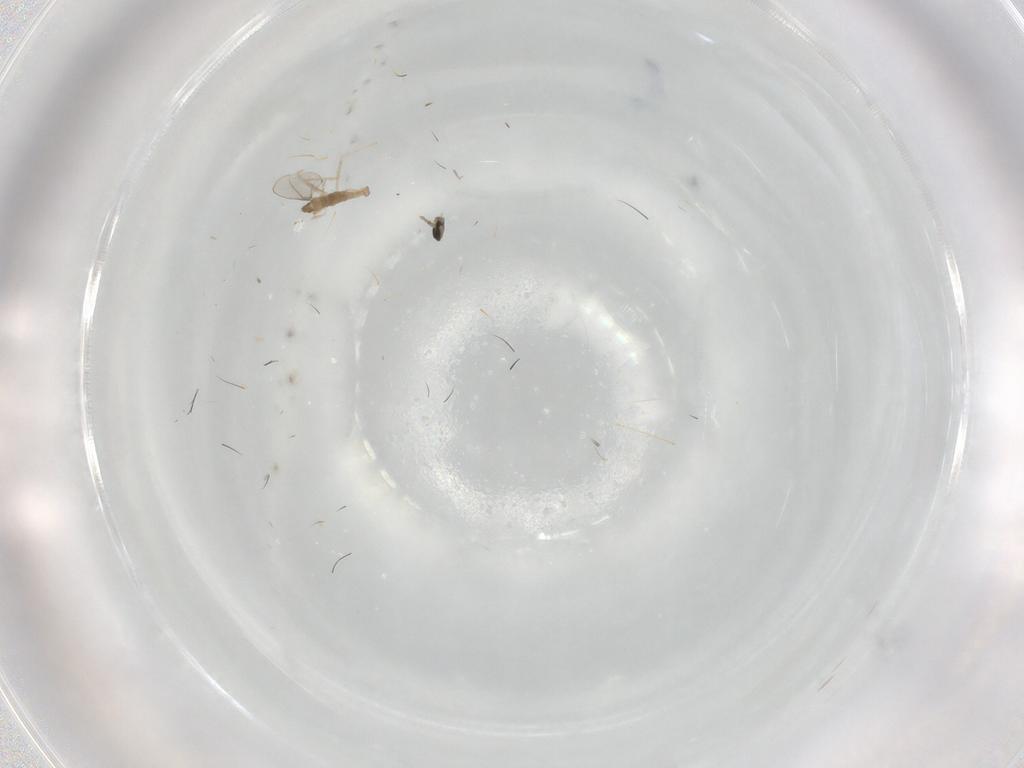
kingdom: Animalia
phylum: Arthropoda
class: Insecta
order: Diptera
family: Cecidomyiidae
